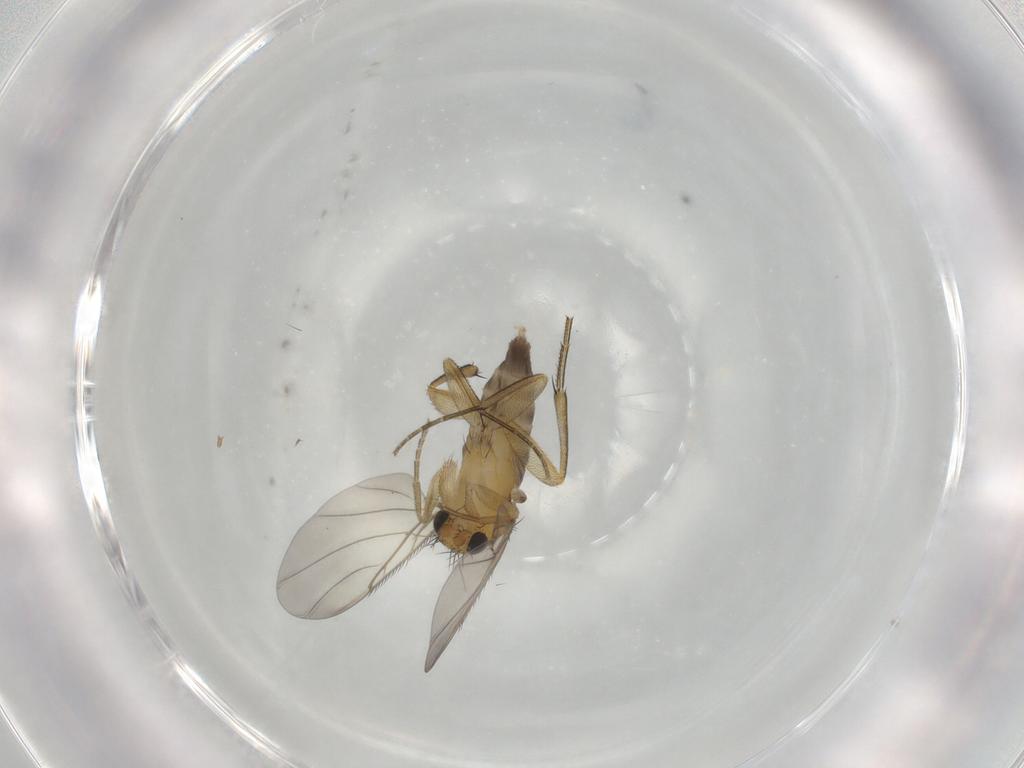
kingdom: Animalia
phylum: Arthropoda
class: Insecta
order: Diptera
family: Phoridae
